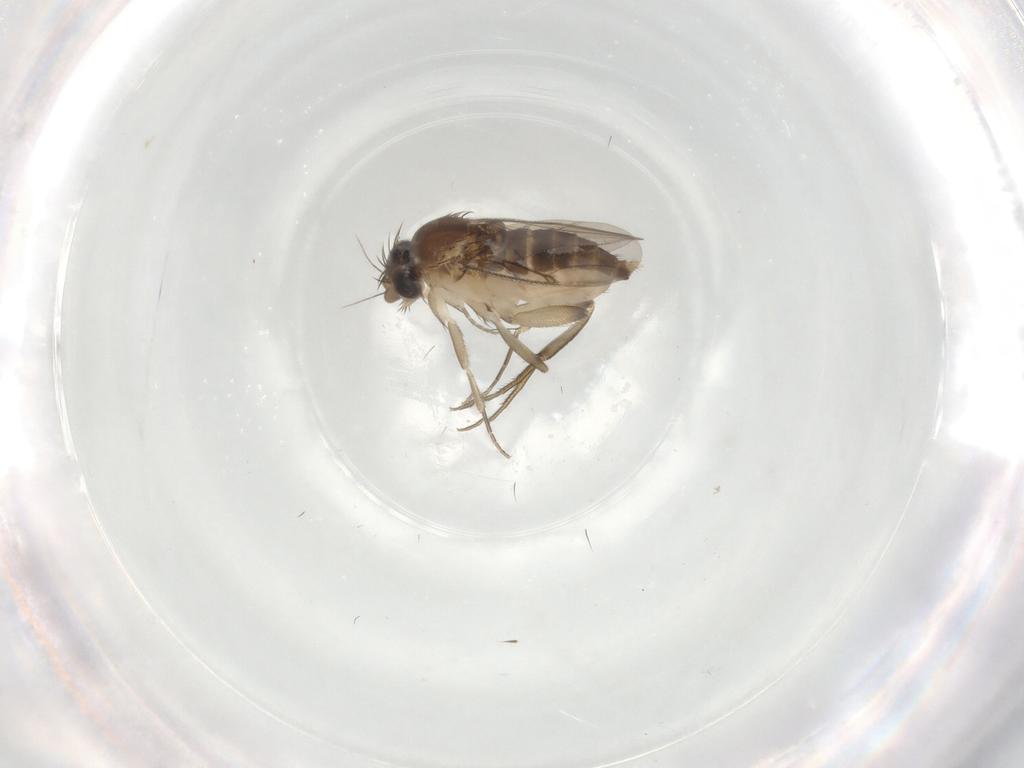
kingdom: Animalia
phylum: Arthropoda
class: Insecta
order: Diptera
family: Phoridae
